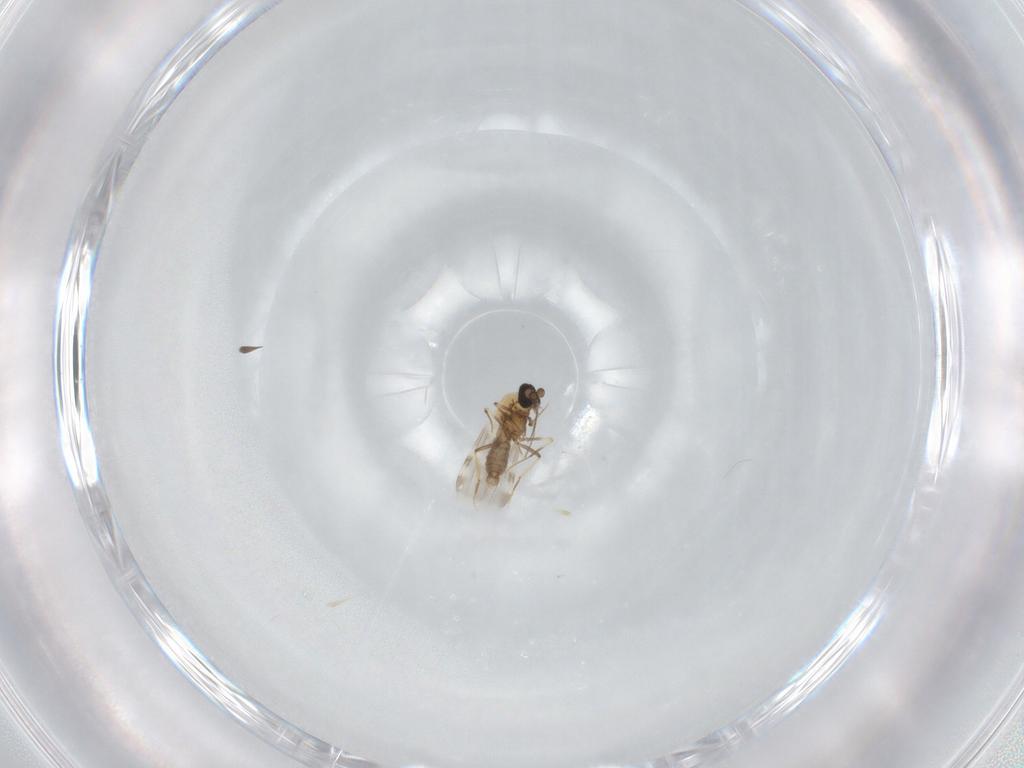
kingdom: Animalia
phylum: Arthropoda
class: Insecta
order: Diptera
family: Ceratopogonidae
